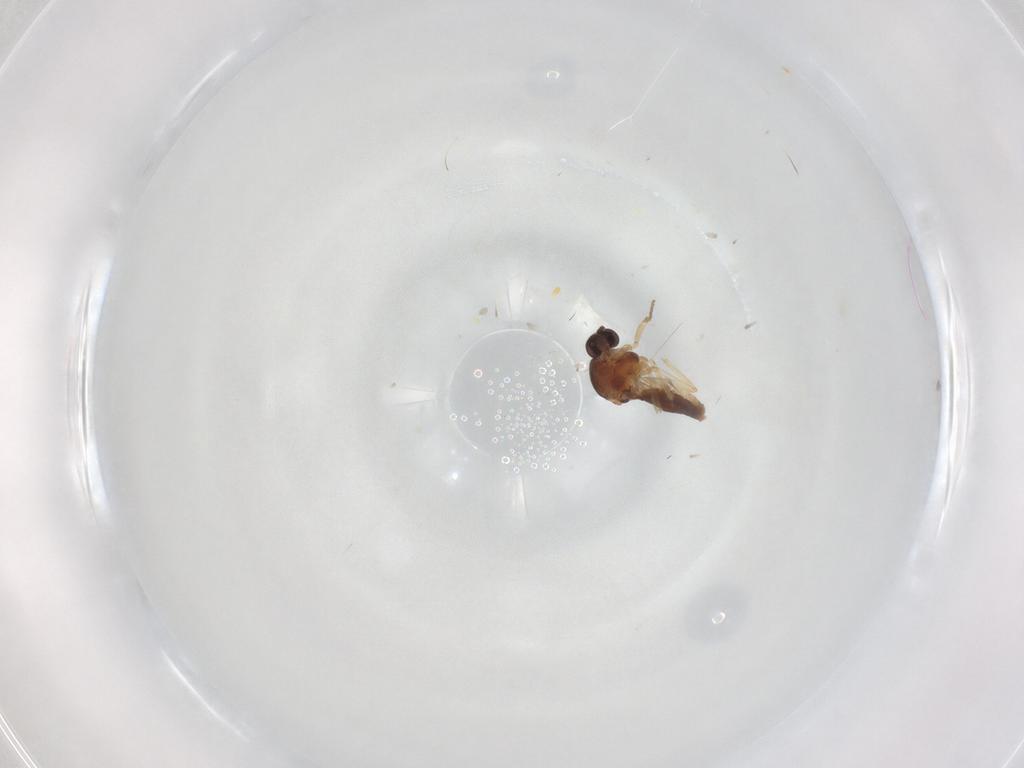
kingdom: Animalia
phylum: Arthropoda
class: Insecta
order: Diptera
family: Ceratopogonidae
